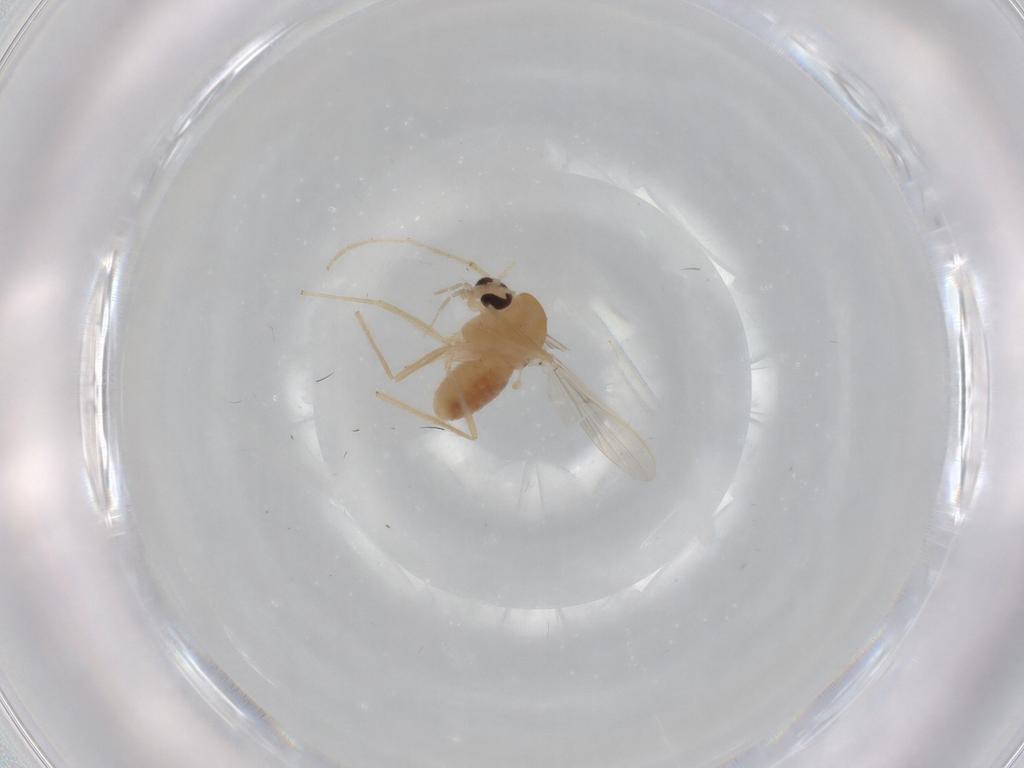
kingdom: Animalia
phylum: Arthropoda
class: Insecta
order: Diptera
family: Chironomidae
